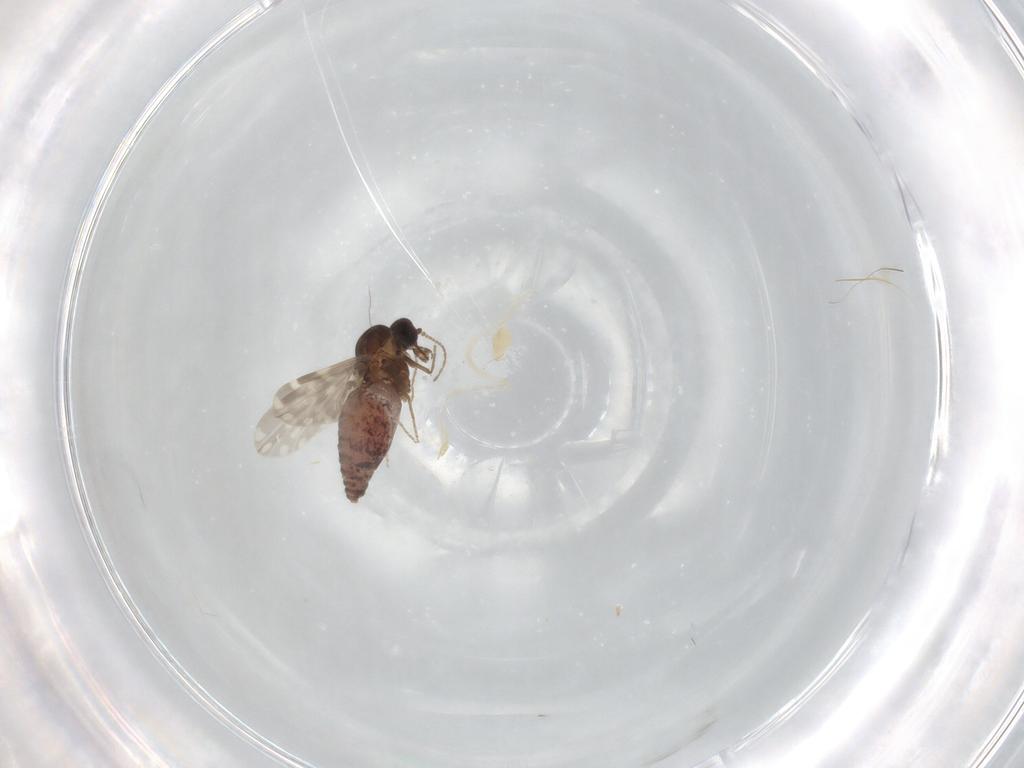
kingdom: Animalia
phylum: Arthropoda
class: Insecta
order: Diptera
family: Ceratopogonidae
